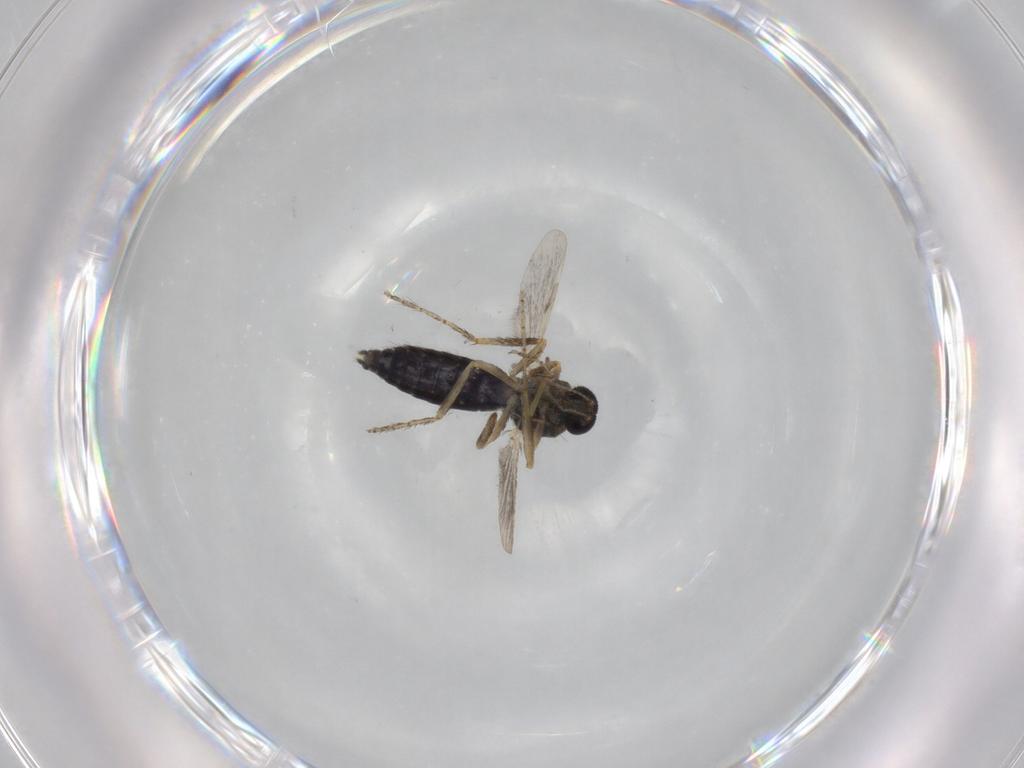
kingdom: Animalia
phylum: Arthropoda
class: Insecta
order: Diptera
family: Ceratopogonidae
